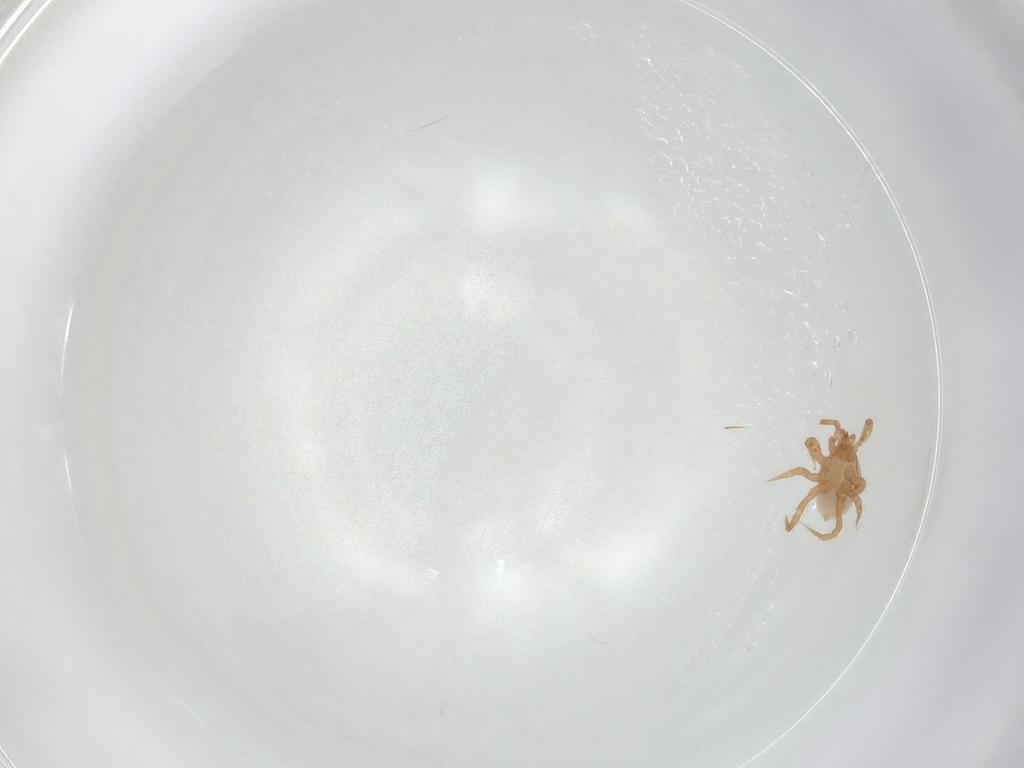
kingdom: Animalia
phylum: Arthropoda
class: Arachnida
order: Mesostigmata
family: Parasitidae
